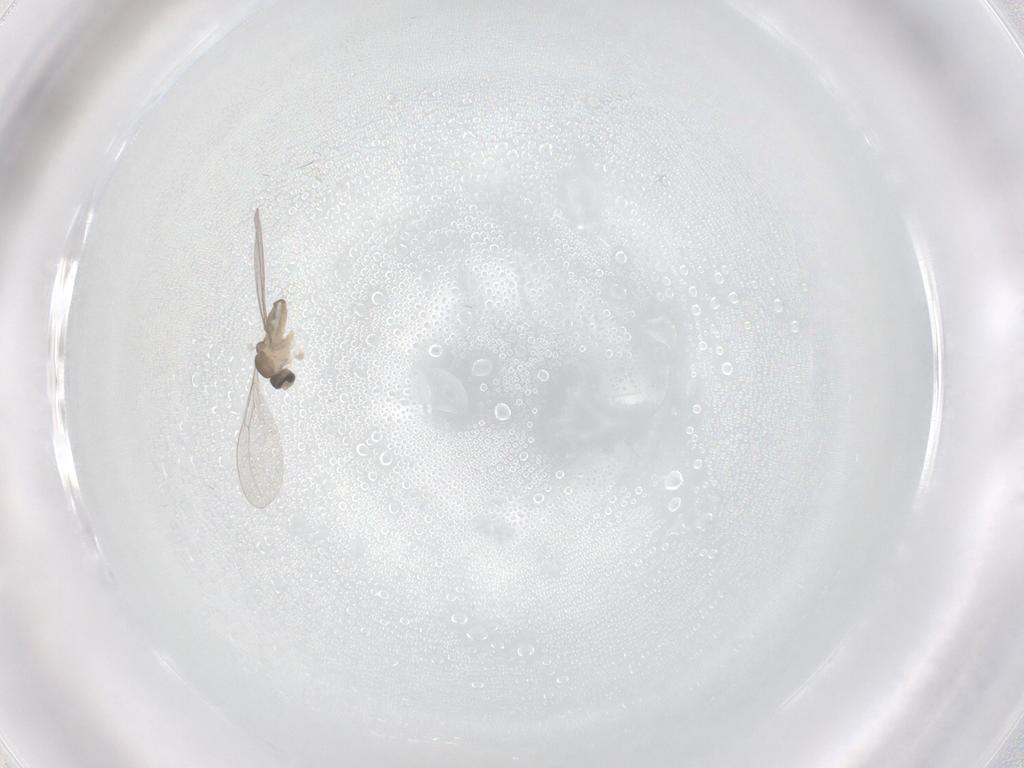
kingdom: Animalia
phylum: Arthropoda
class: Insecta
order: Diptera
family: Cecidomyiidae
